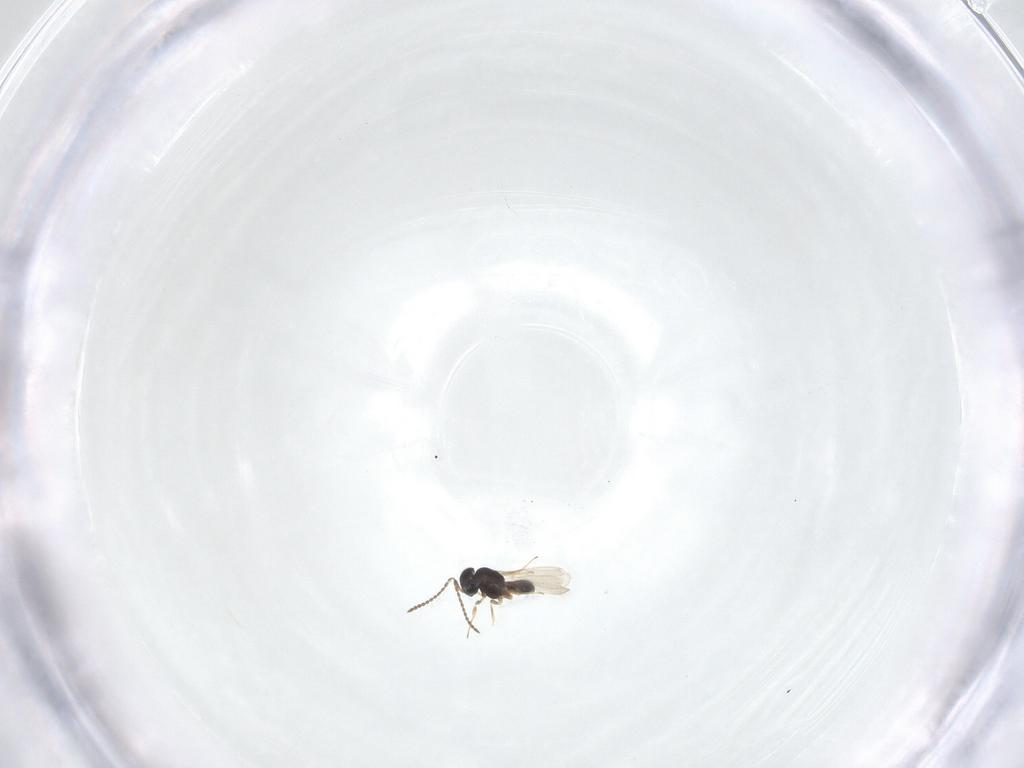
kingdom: Animalia
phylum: Arthropoda
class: Insecta
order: Hymenoptera
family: Scelionidae
